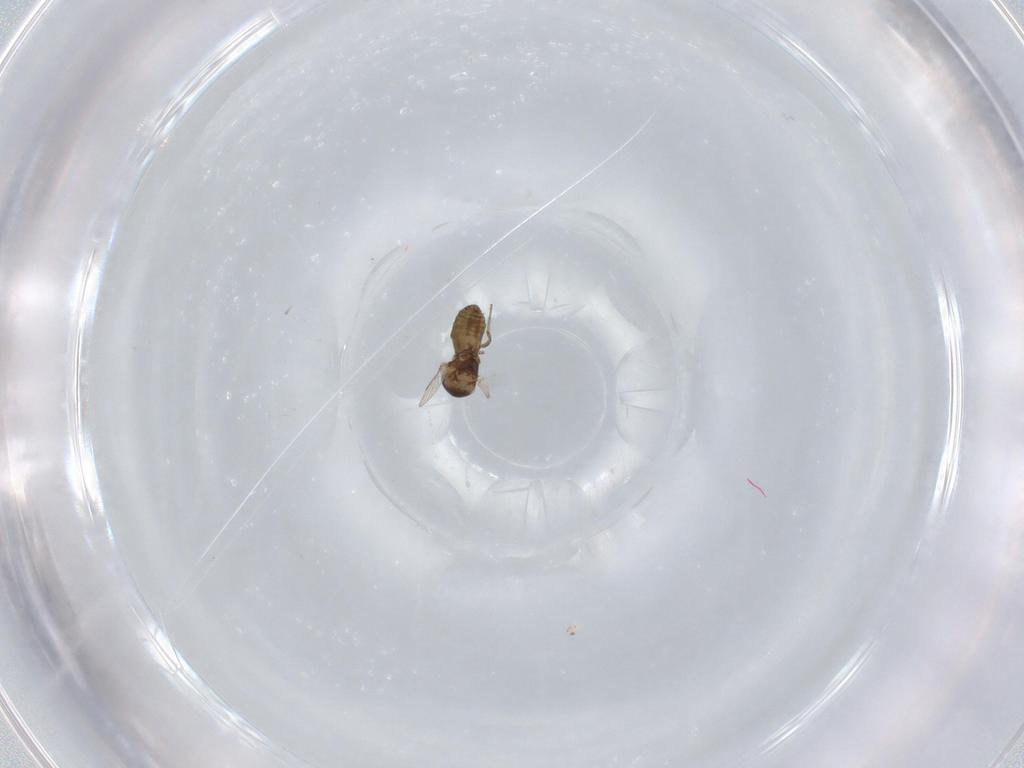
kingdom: Animalia
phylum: Arthropoda
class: Insecta
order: Diptera
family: Ceratopogonidae
